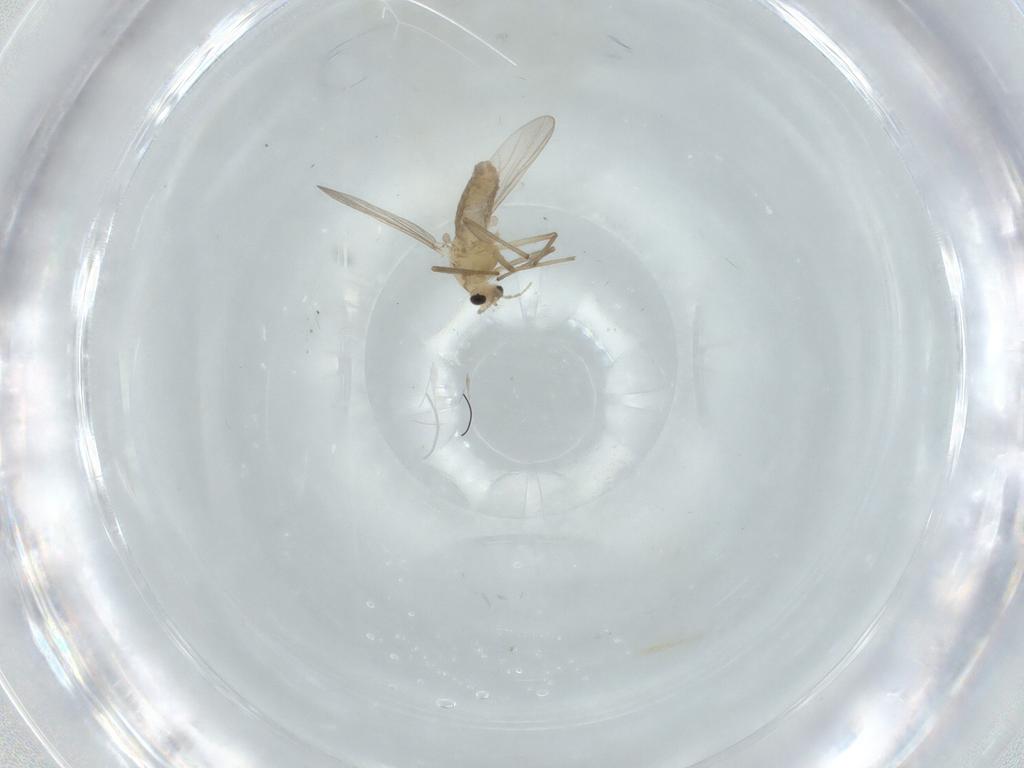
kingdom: Animalia
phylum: Arthropoda
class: Insecta
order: Diptera
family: Chironomidae
